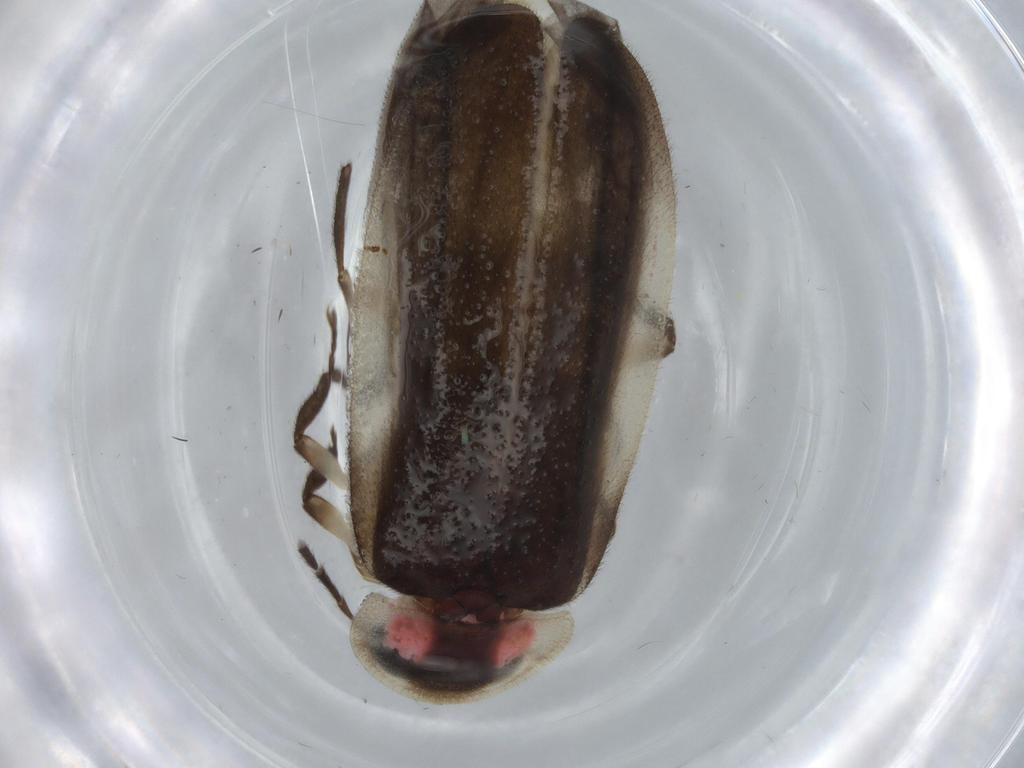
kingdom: Animalia
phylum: Arthropoda
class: Insecta
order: Coleoptera
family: Lampyridae
